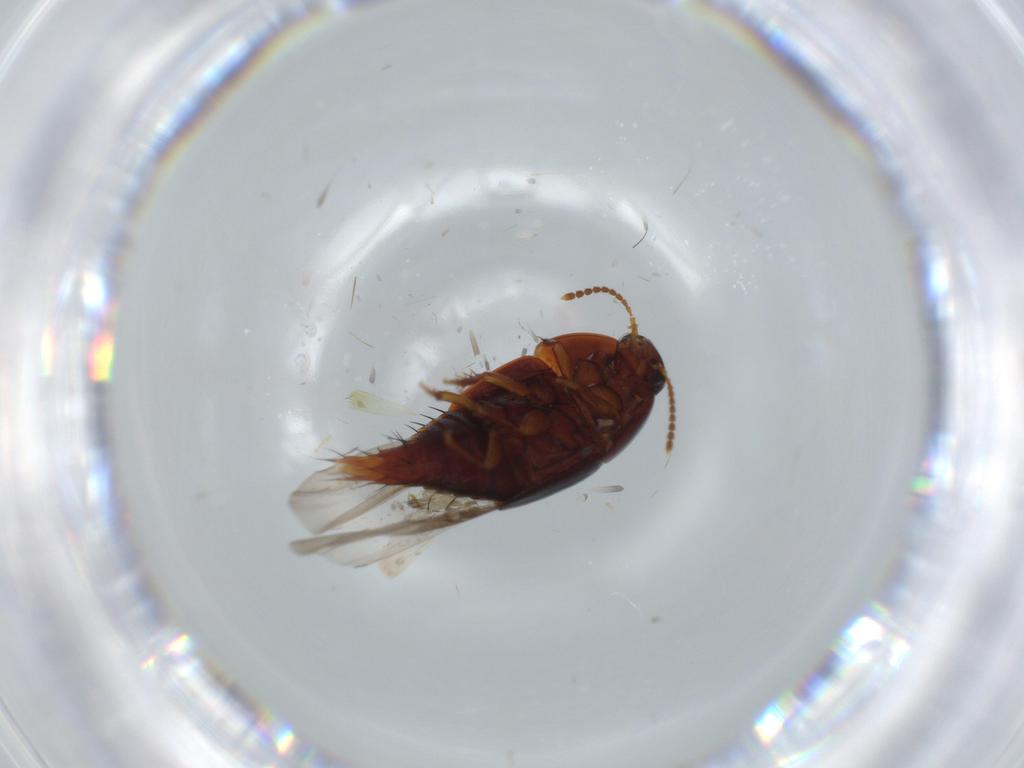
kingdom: Animalia
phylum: Arthropoda
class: Insecta
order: Coleoptera
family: Staphylinidae
